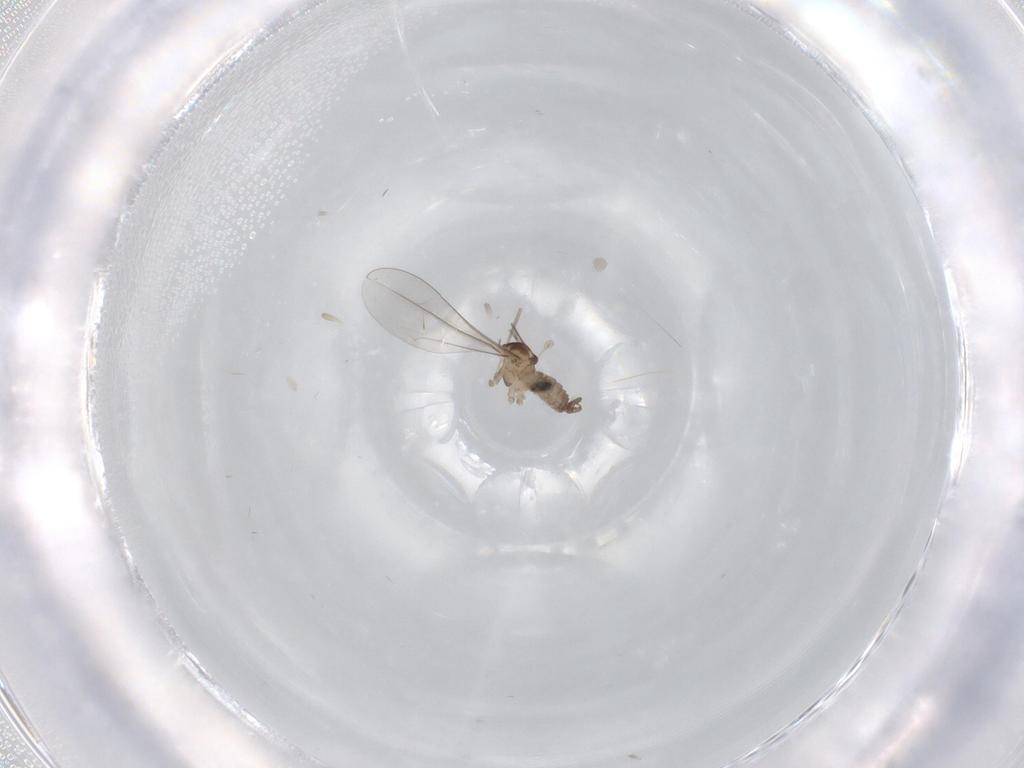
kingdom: Animalia
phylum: Arthropoda
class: Insecta
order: Diptera
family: Cecidomyiidae
